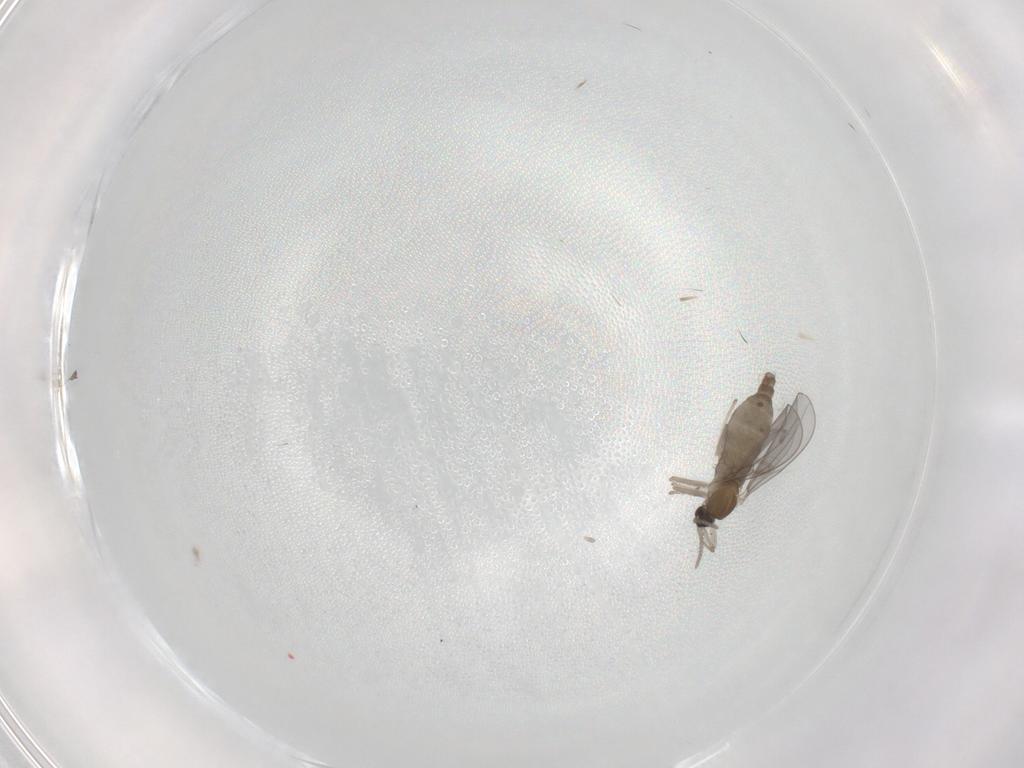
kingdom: Animalia
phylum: Arthropoda
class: Insecta
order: Diptera
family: Cecidomyiidae
